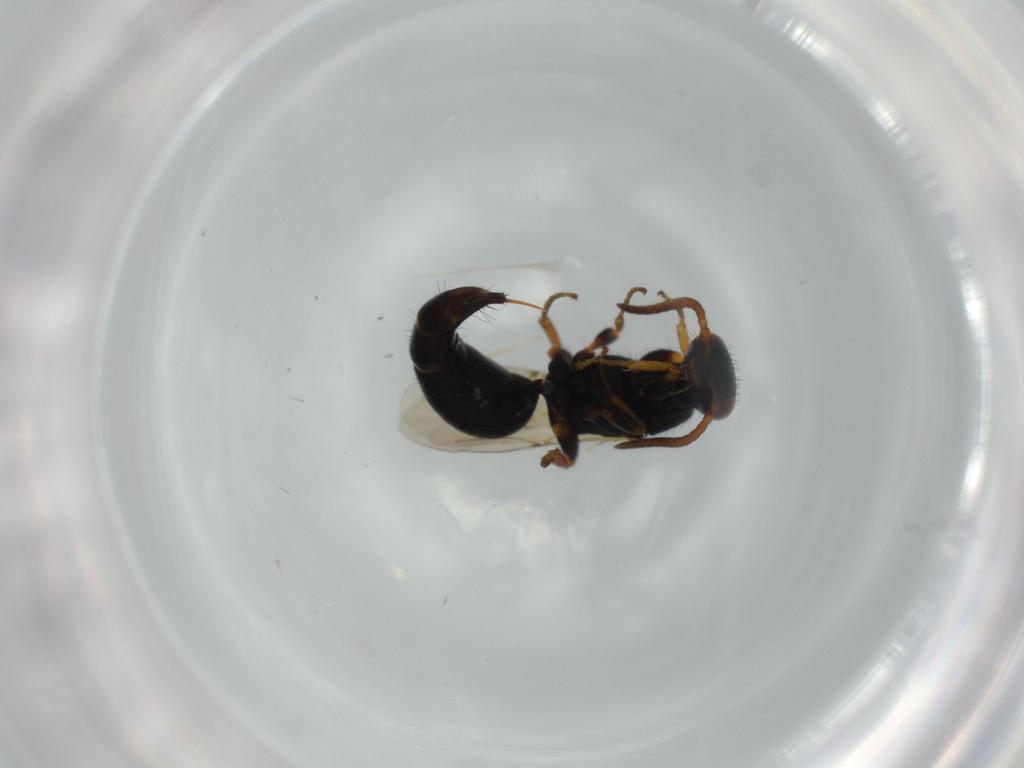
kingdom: Animalia
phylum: Arthropoda
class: Insecta
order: Hymenoptera
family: Bethylidae
